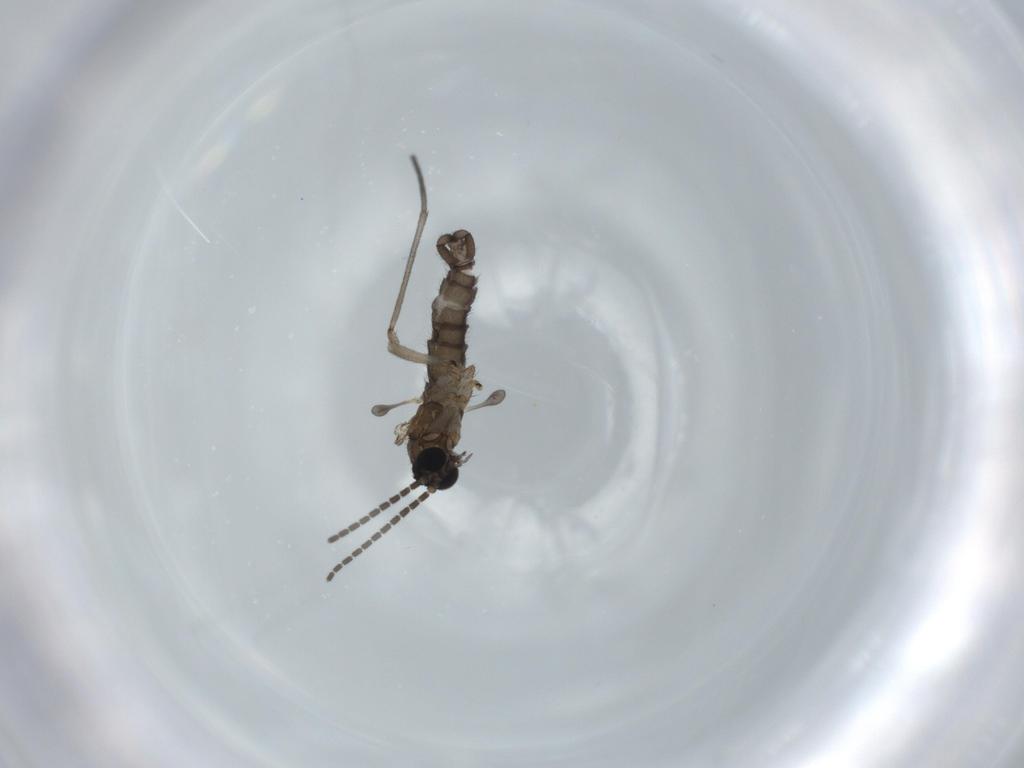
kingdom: Animalia
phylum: Arthropoda
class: Insecta
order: Diptera
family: Sciaridae
